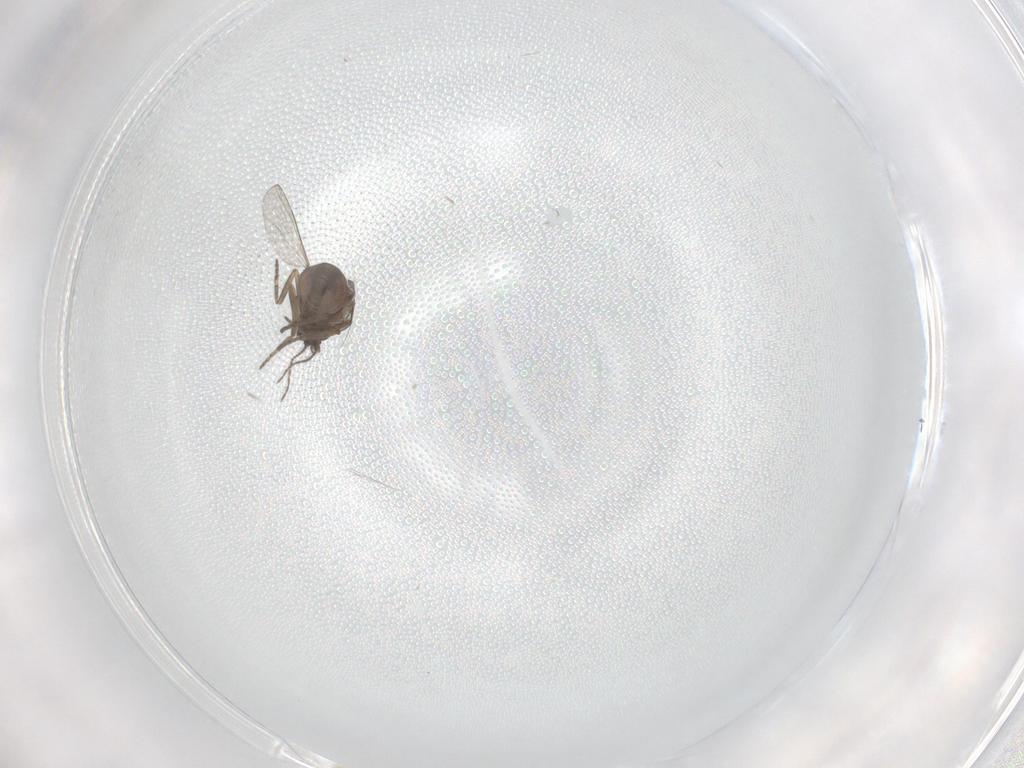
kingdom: Animalia
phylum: Arthropoda
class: Insecta
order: Diptera
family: Ceratopogonidae
